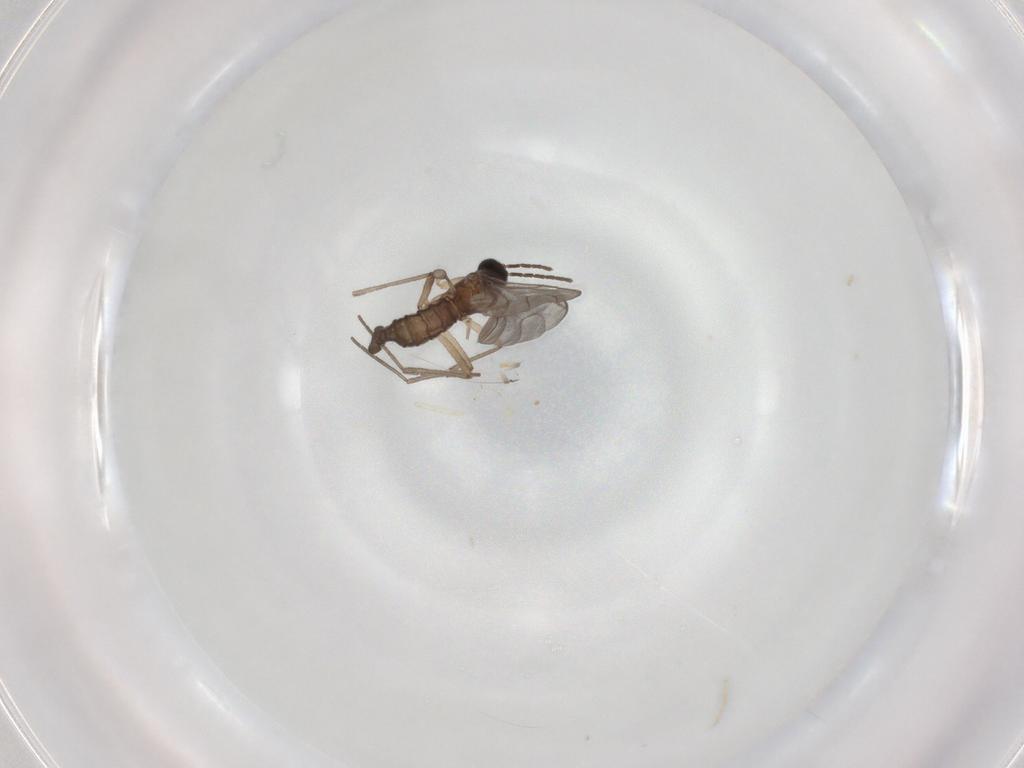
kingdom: Animalia
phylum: Arthropoda
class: Insecta
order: Diptera
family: Sciaridae
